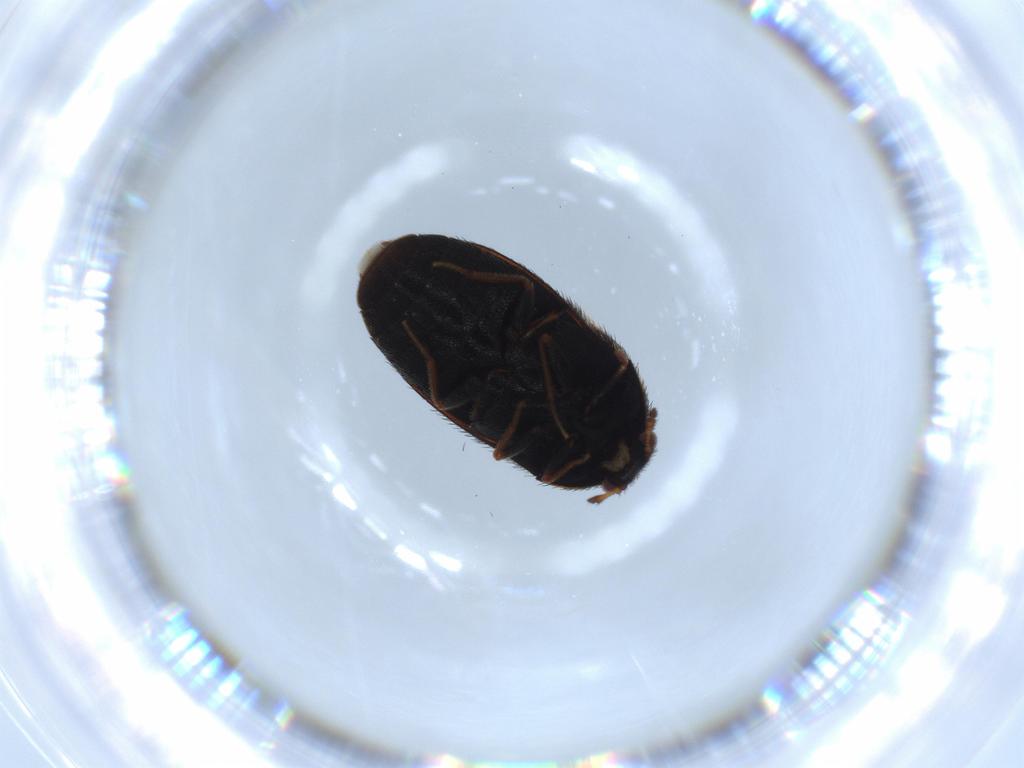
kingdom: Animalia
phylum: Arthropoda
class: Insecta
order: Coleoptera
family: Dermestidae
